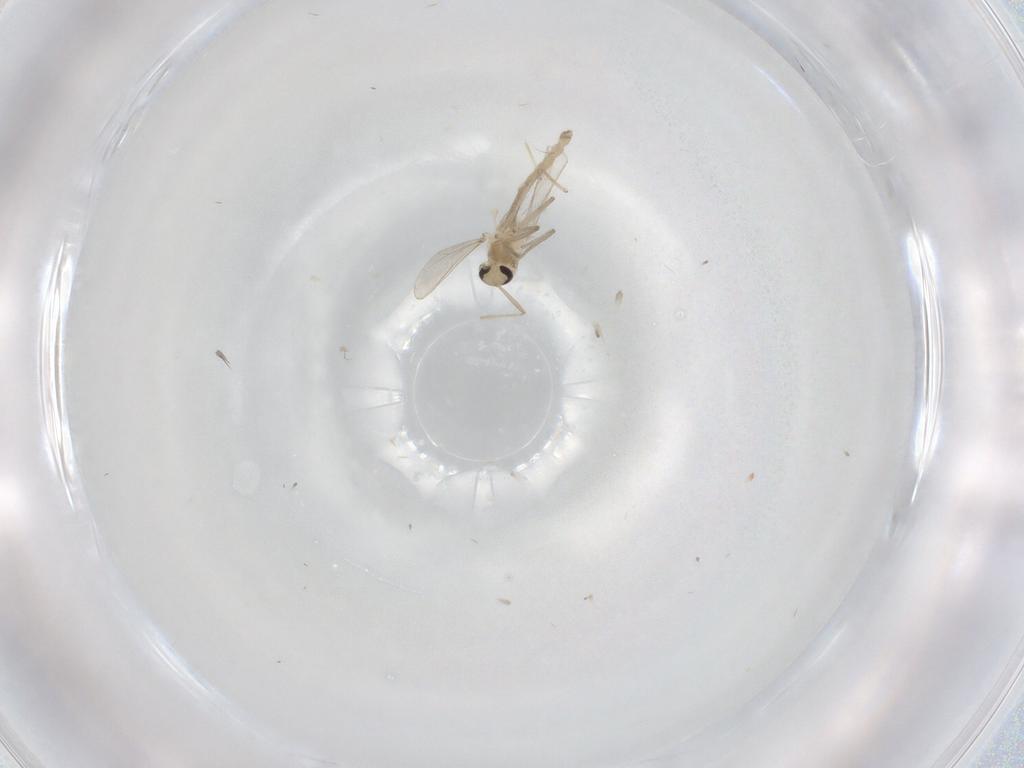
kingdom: Animalia
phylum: Arthropoda
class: Insecta
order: Diptera
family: Chironomidae
